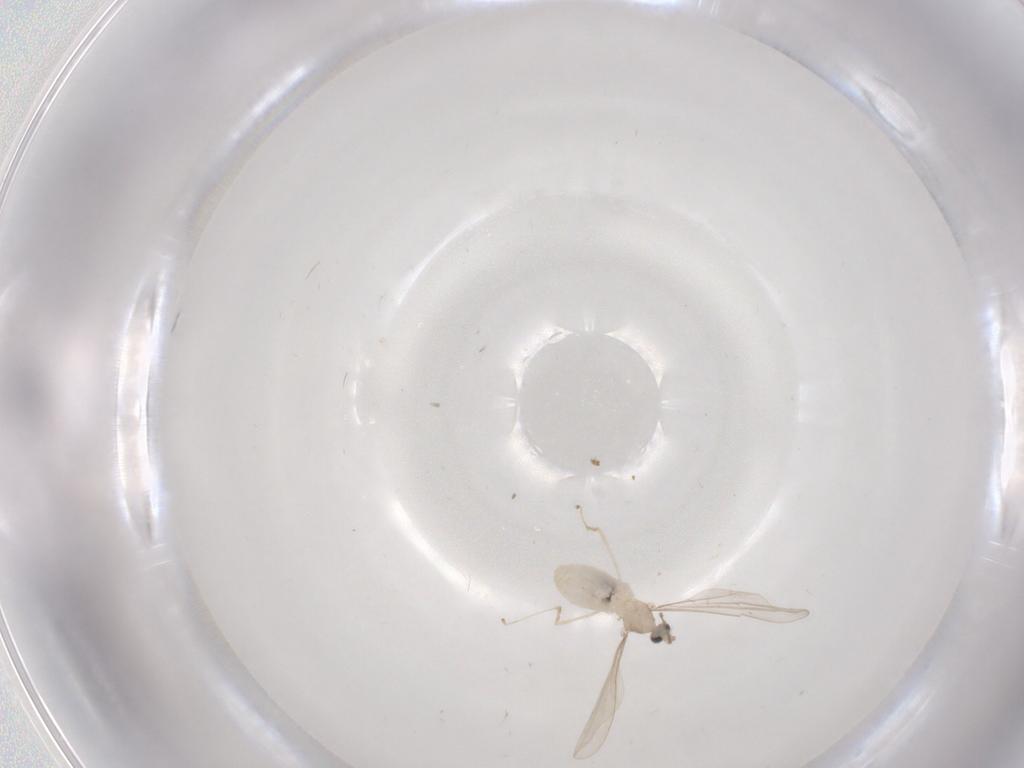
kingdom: Animalia
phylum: Arthropoda
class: Insecta
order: Diptera
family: Cecidomyiidae
